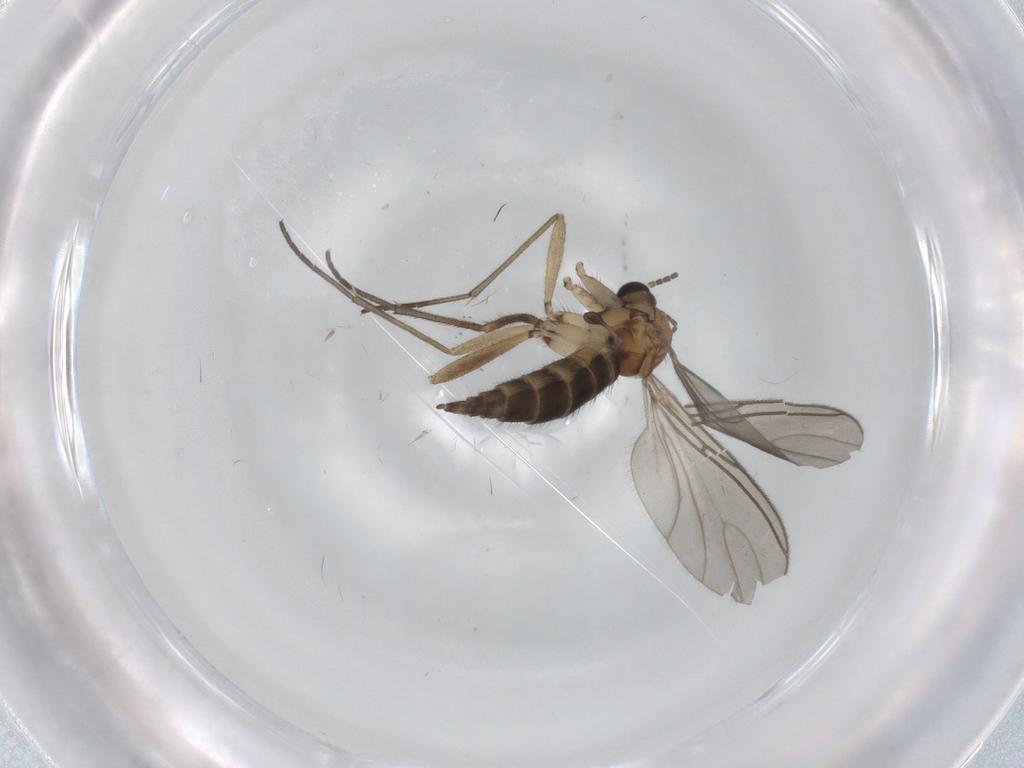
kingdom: Animalia
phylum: Arthropoda
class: Insecta
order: Diptera
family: Sciaridae
